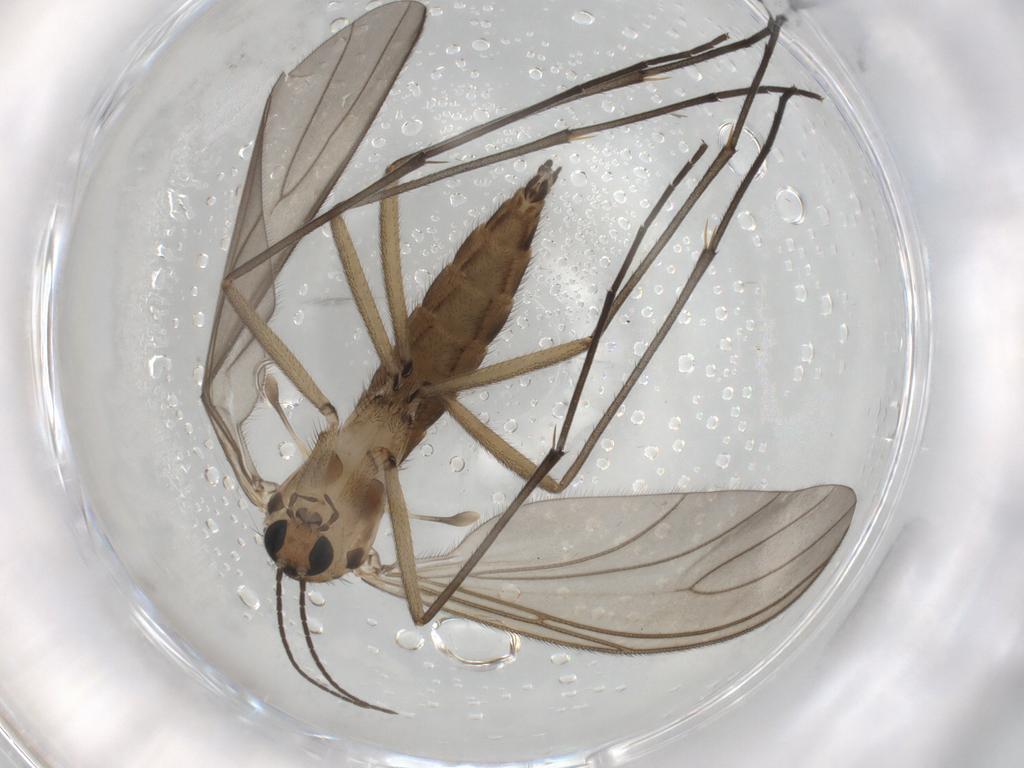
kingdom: Animalia
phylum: Arthropoda
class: Insecta
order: Diptera
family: Sciaridae
